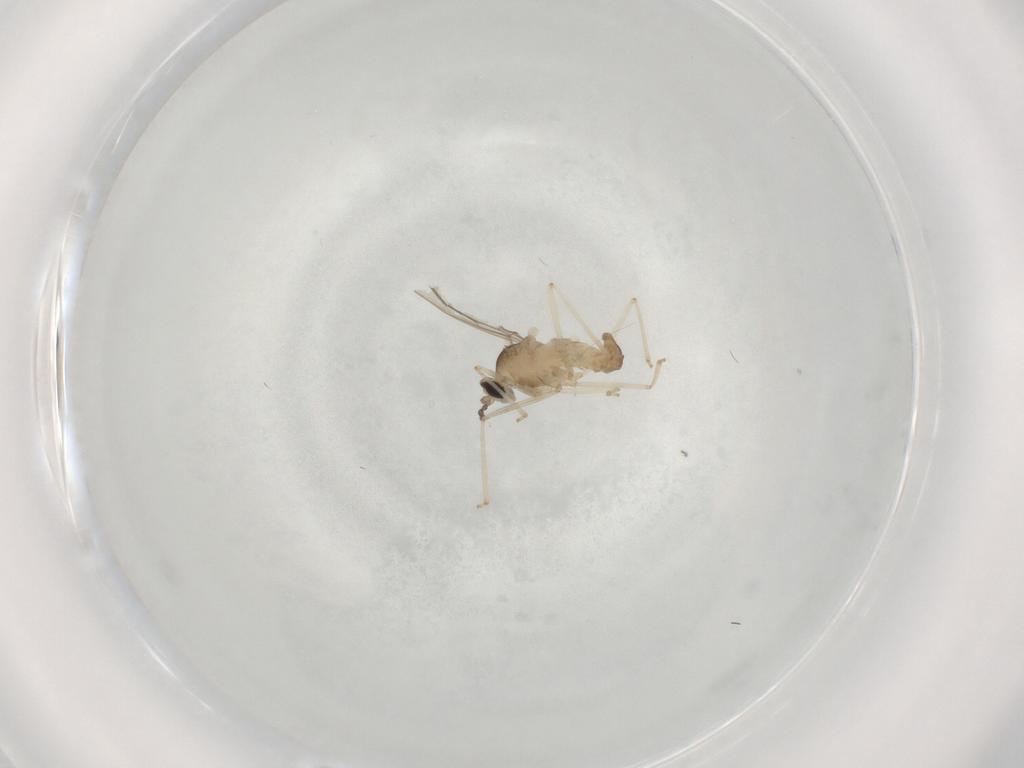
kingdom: Animalia
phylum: Arthropoda
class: Insecta
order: Diptera
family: Cecidomyiidae
